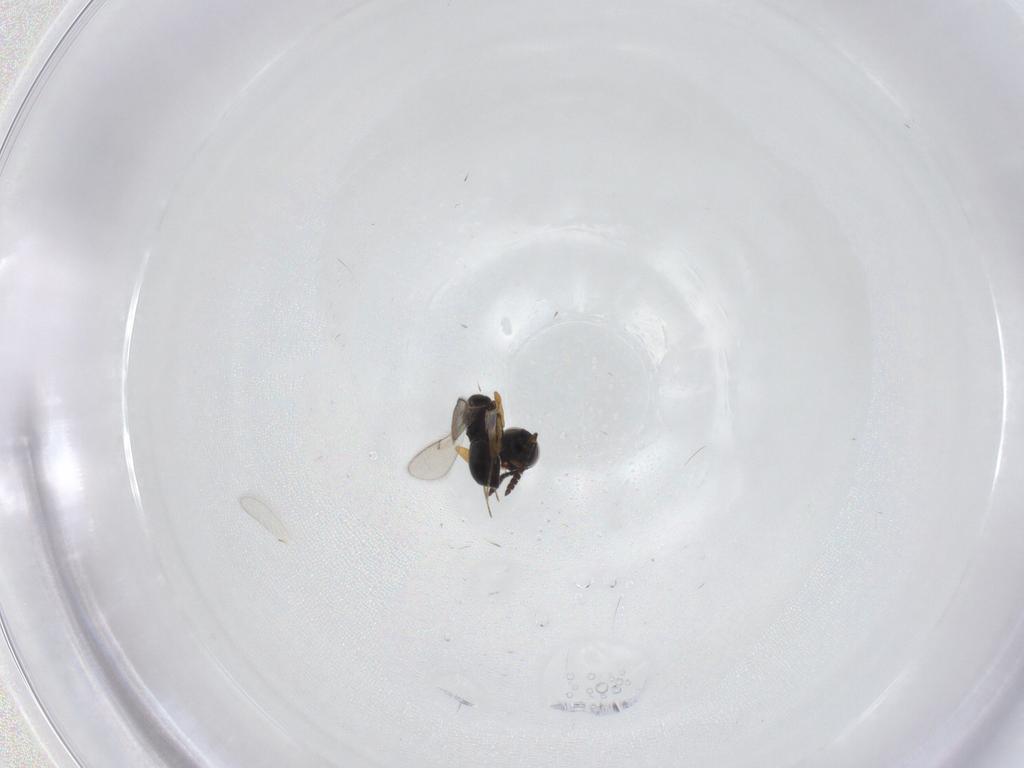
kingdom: Animalia
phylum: Arthropoda
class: Insecta
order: Hymenoptera
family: Scelionidae
